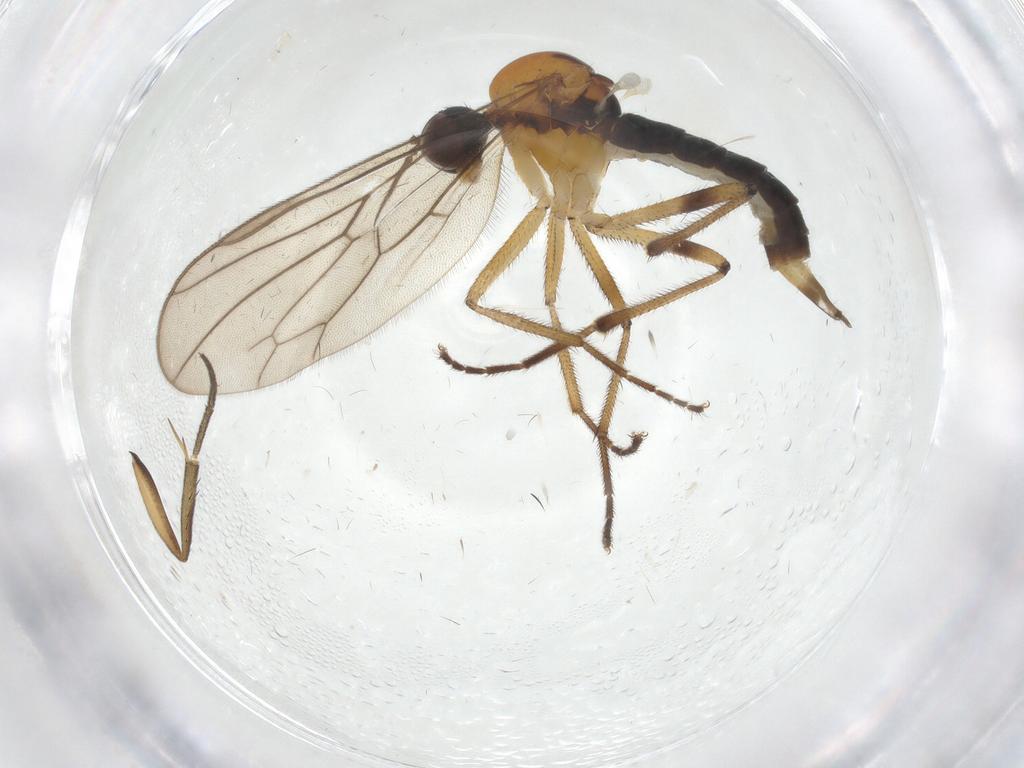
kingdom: Animalia
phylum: Arthropoda
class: Insecta
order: Diptera
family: Hybotidae
